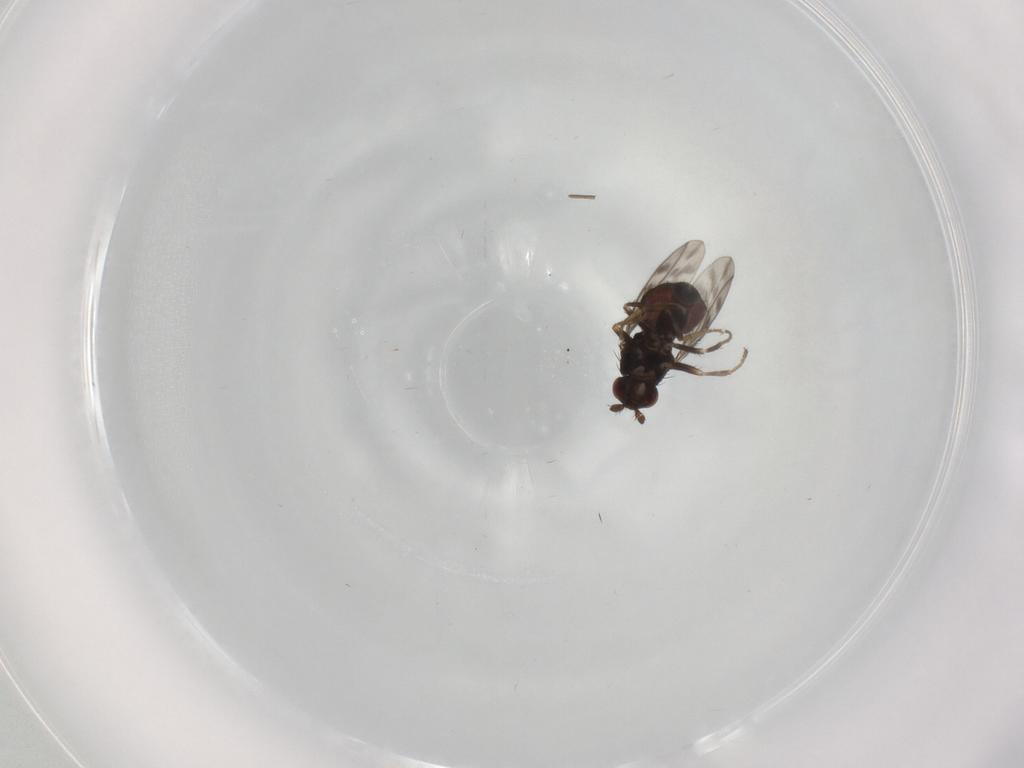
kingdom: Animalia
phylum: Arthropoda
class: Insecta
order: Diptera
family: Sphaeroceridae
